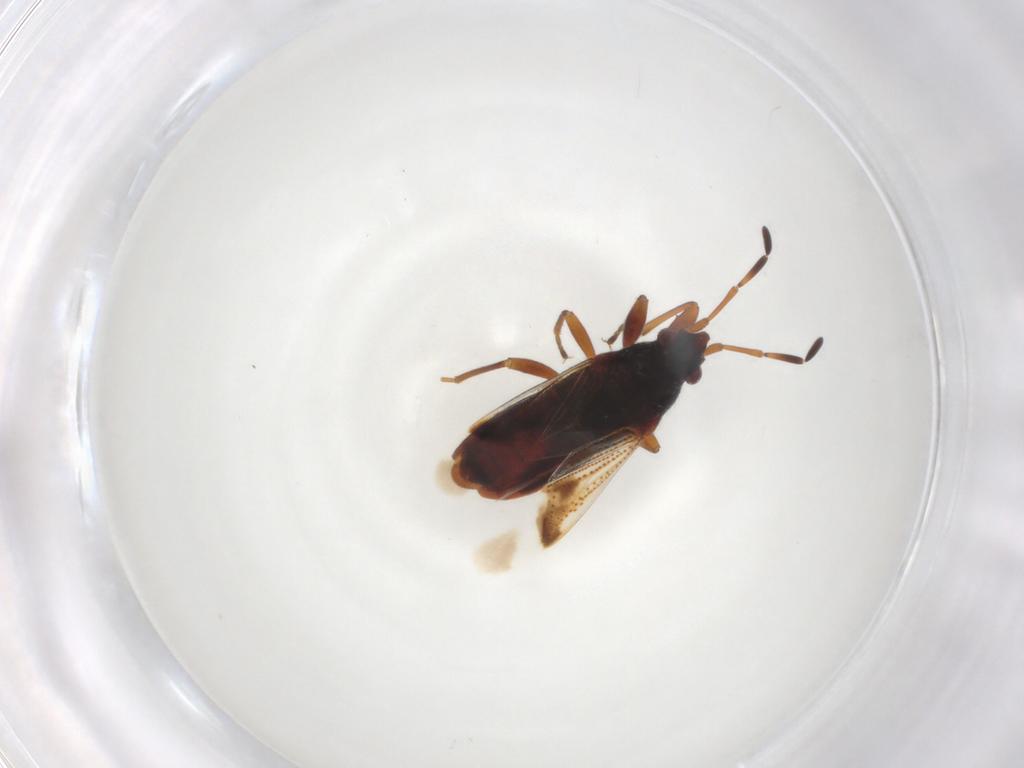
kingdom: Animalia
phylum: Arthropoda
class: Insecta
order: Hemiptera
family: Rhyparochromidae
